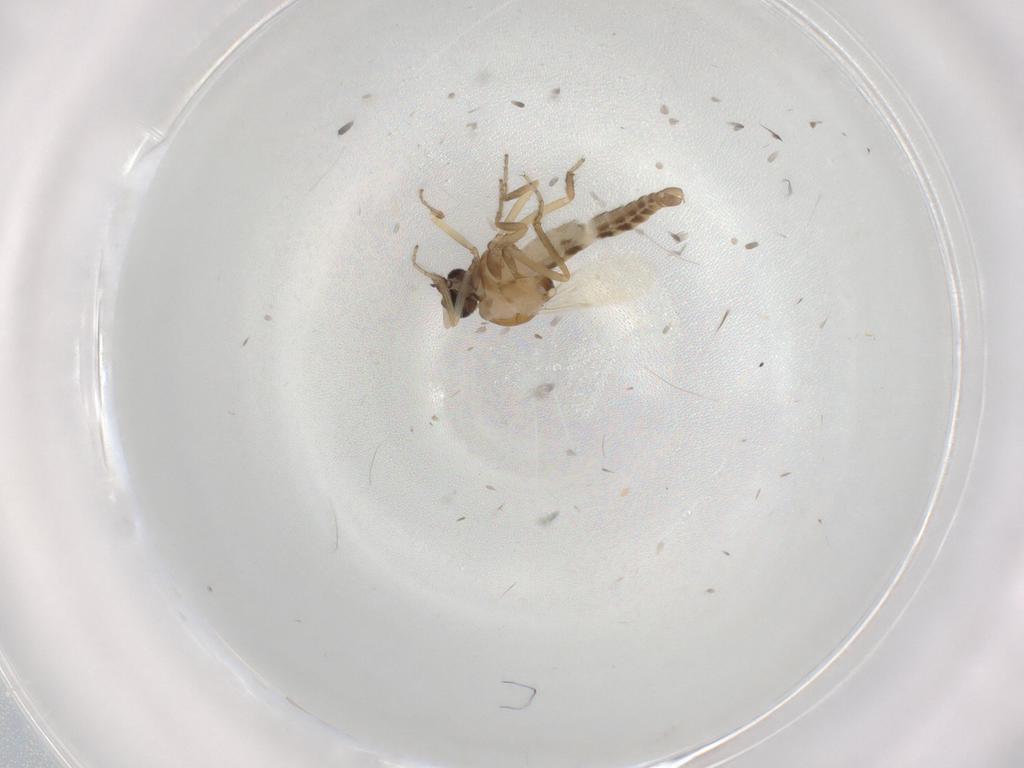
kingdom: Animalia
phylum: Arthropoda
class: Insecta
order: Diptera
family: Ceratopogonidae
